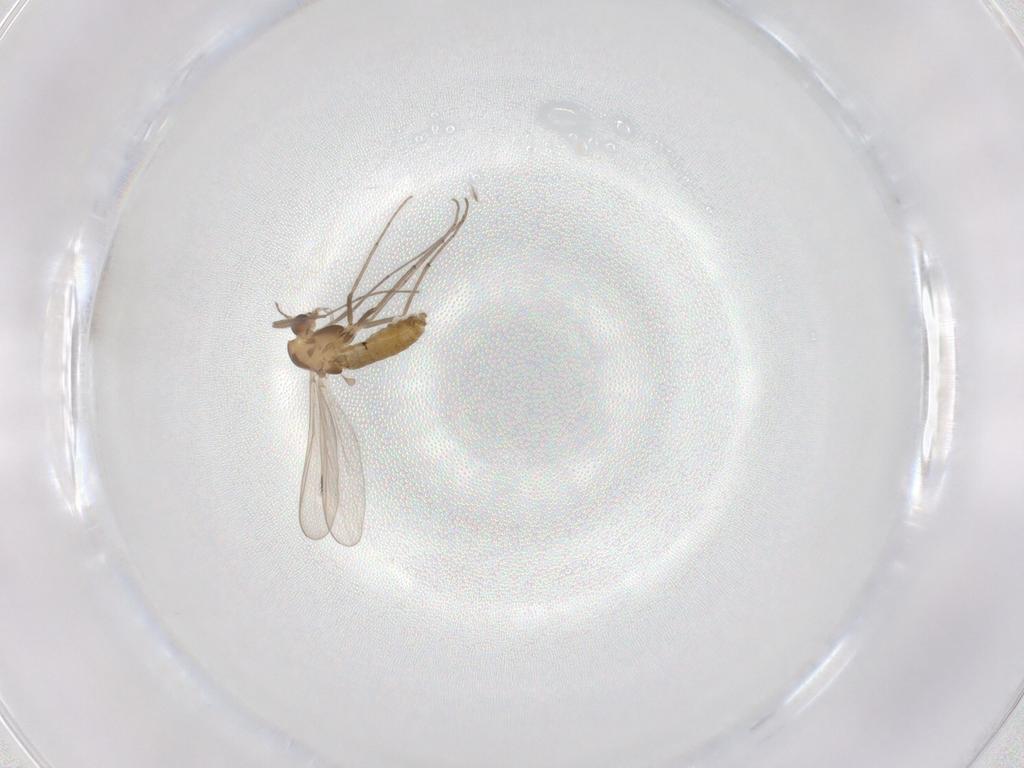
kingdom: Animalia
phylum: Arthropoda
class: Insecta
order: Diptera
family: Chironomidae
